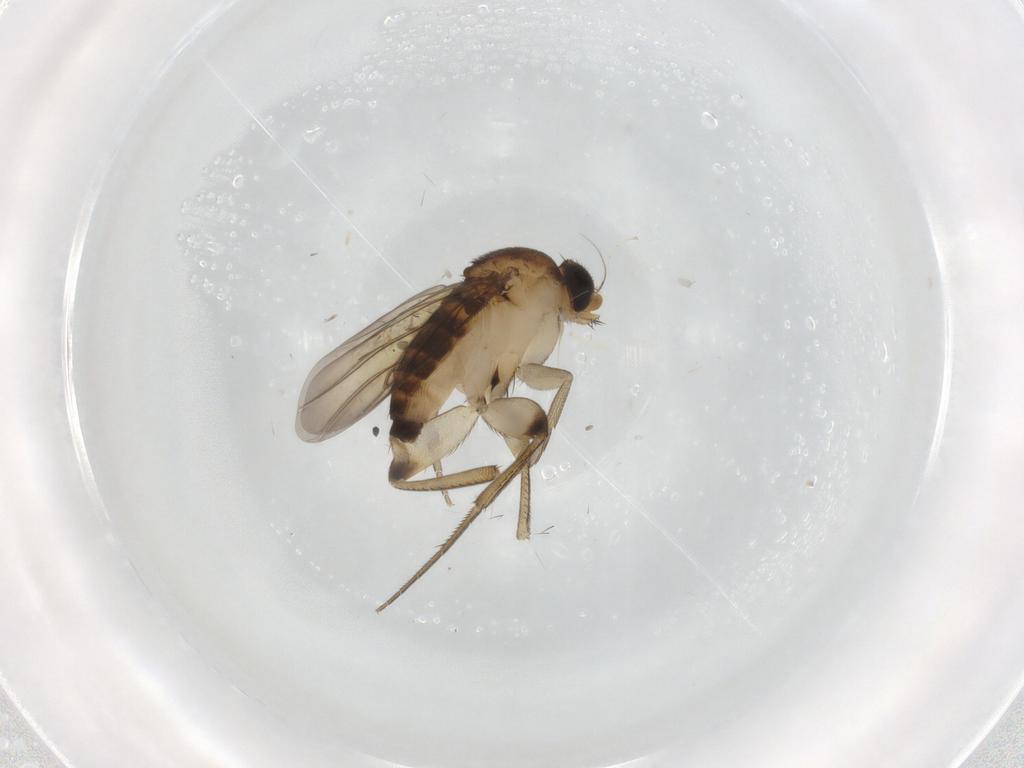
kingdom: Animalia
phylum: Arthropoda
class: Insecta
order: Diptera
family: Phoridae
